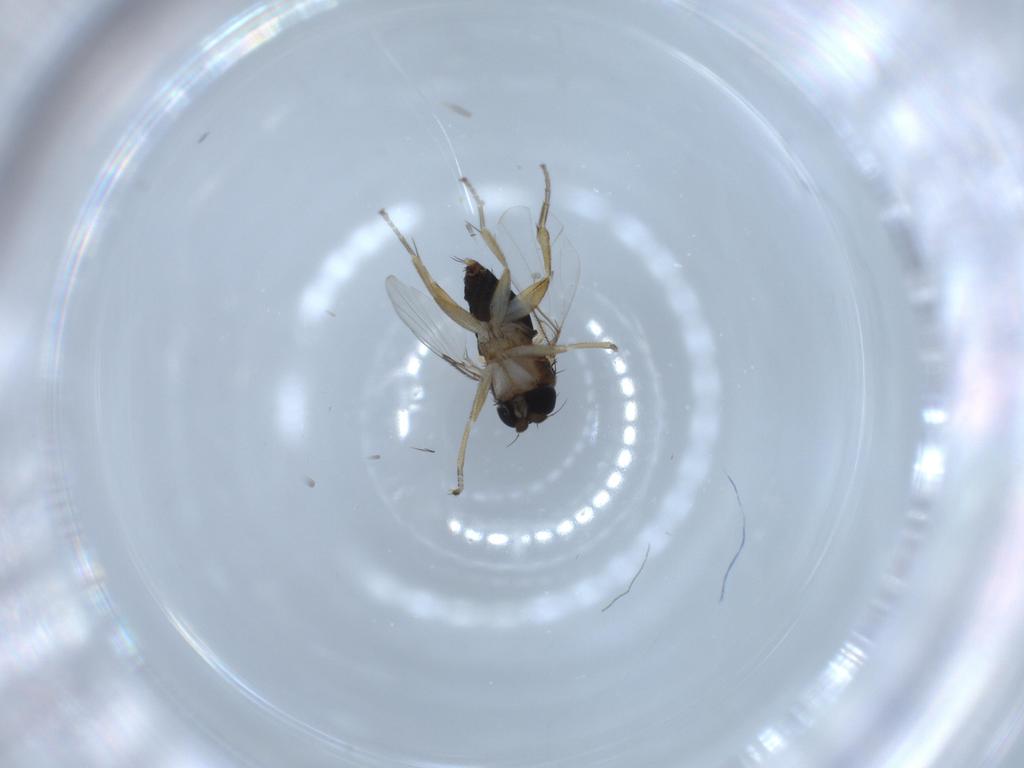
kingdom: Animalia
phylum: Arthropoda
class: Insecta
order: Diptera
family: Phoridae
